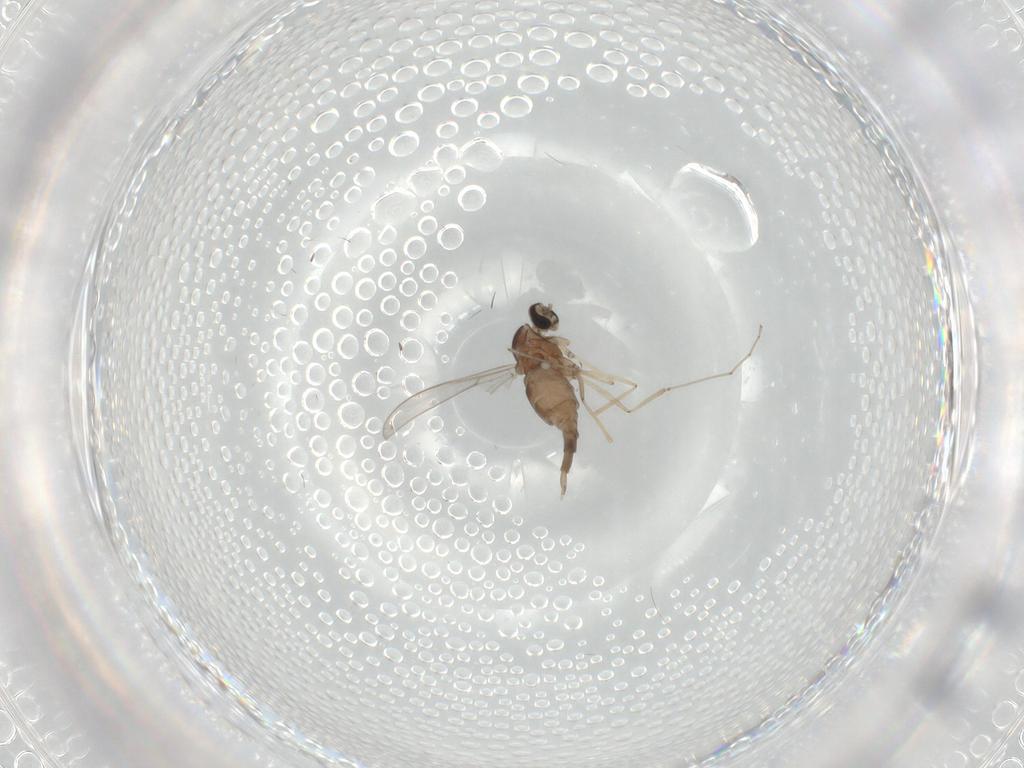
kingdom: Animalia
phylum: Arthropoda
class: Insecta
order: Diptera
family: Cecidomyiidae
